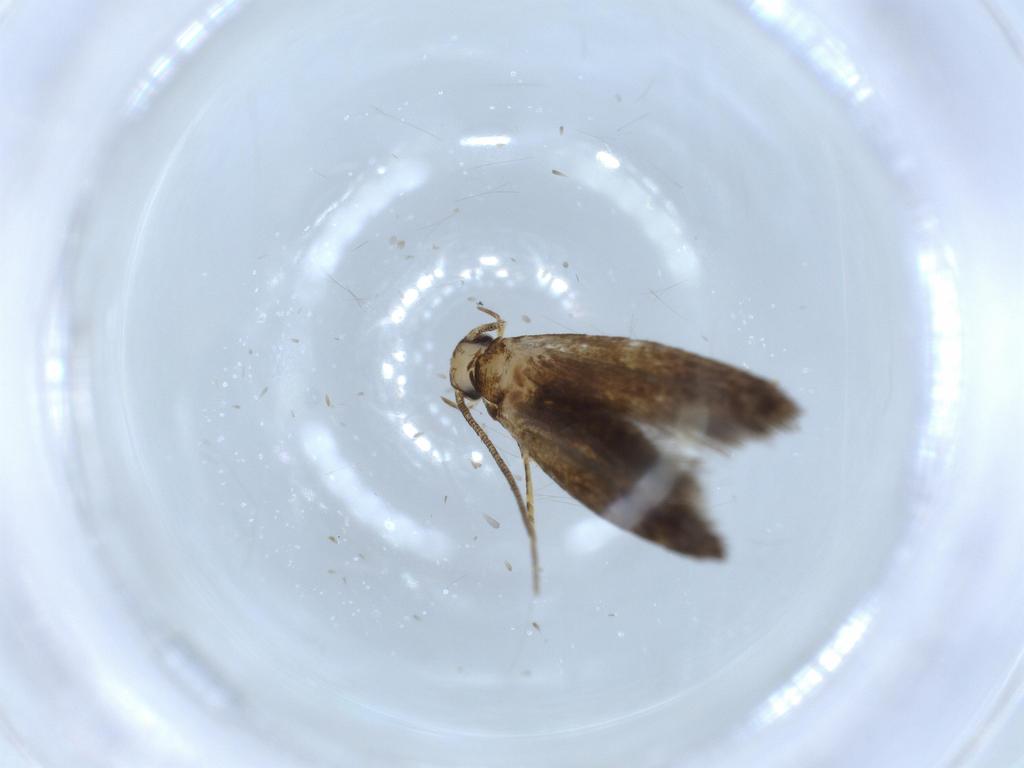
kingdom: Animalia
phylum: Arthropoda
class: Insecta
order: Lepidoptera
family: Tineidae
